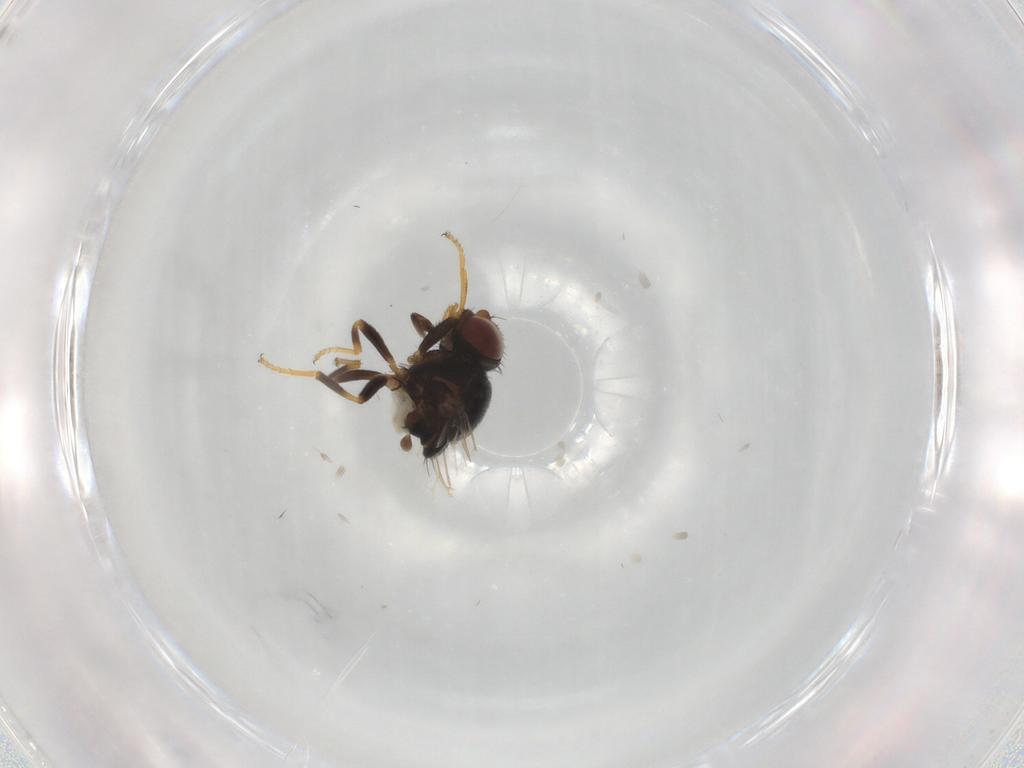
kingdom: Animalia
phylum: Arthropoda
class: Insecta
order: Diptera
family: Chloropidae
